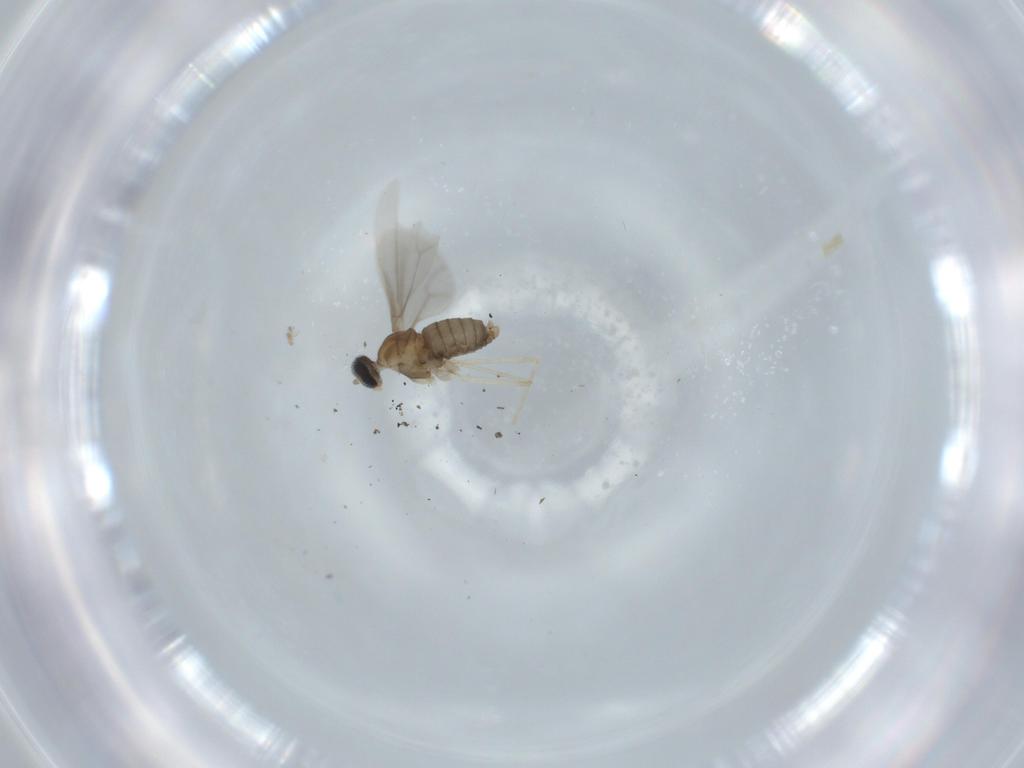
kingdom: Animalia
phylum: Arthropoda
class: Insecta
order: Diptera
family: Cecidomyiidae
